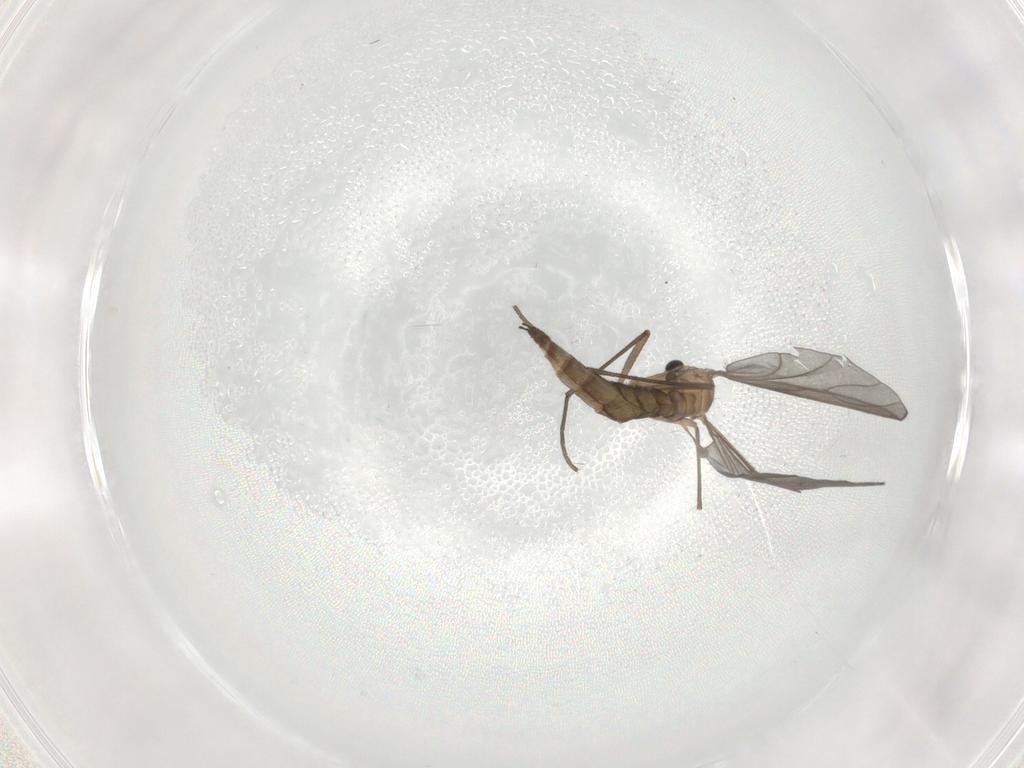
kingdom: Animalia
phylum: Arthropoda
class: Insecta
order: Diptera
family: Sciaridae
